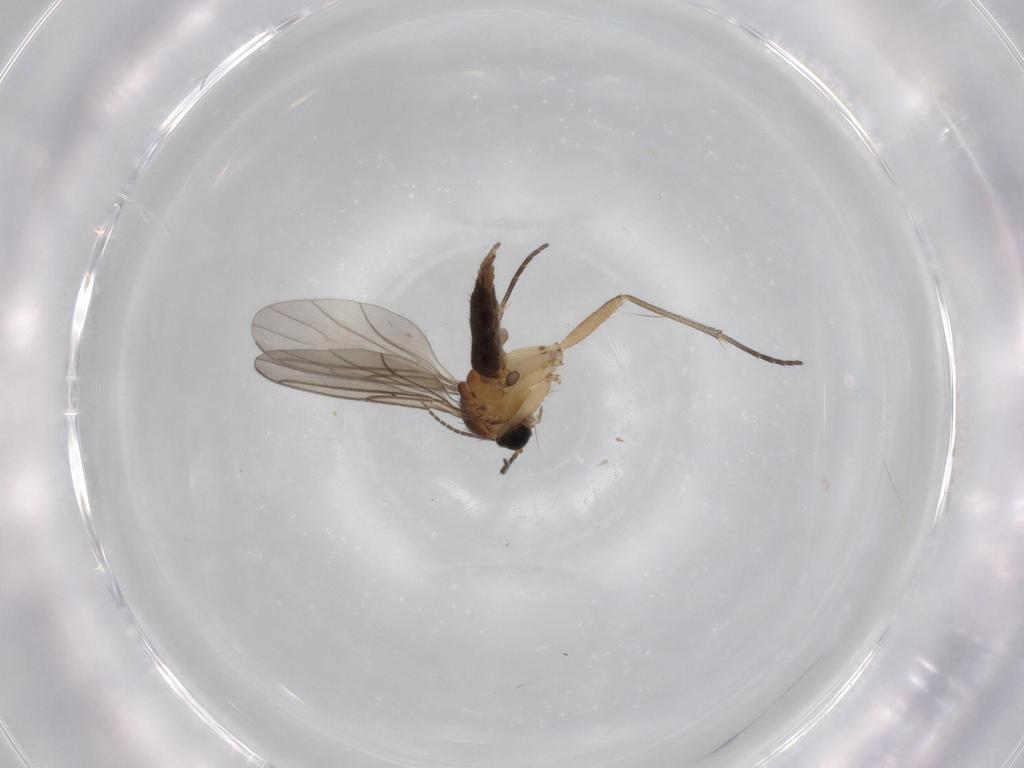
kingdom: Animalia
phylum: Arthropoda
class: Insecta
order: Diptera
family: Sciaridae
